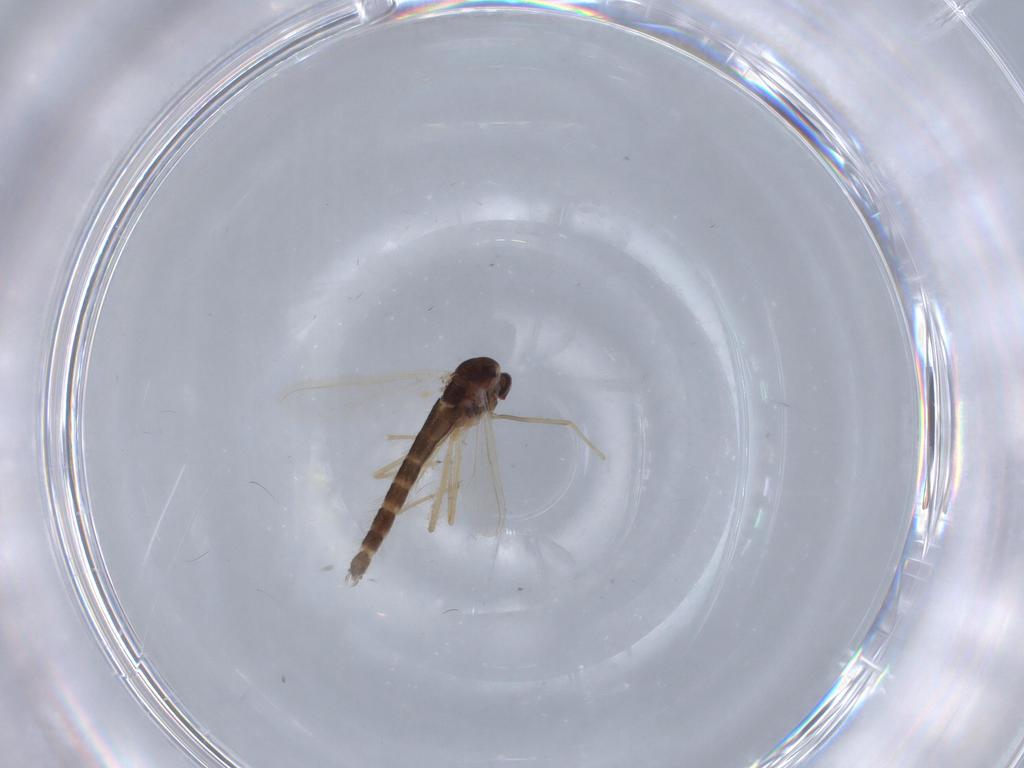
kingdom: Animalia
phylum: Arthropoda
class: Insecta
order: Diptera
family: Chironomidae
